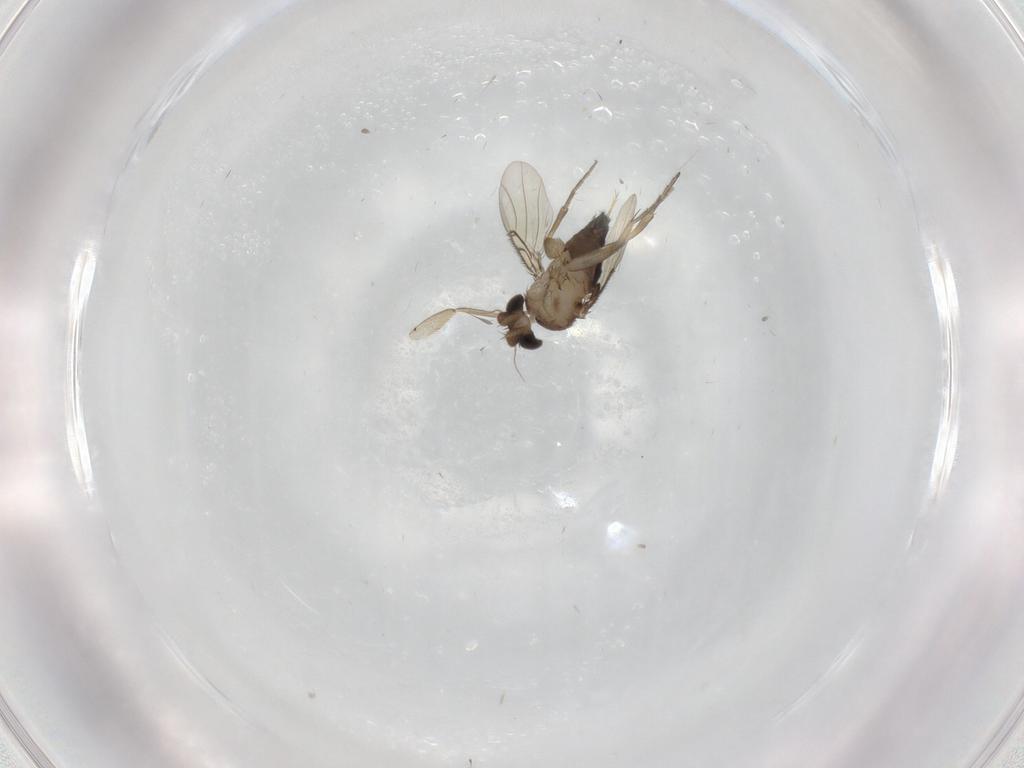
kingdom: Animalia
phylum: Arthropoda
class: Insecta
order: Diptera
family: Phoridae
